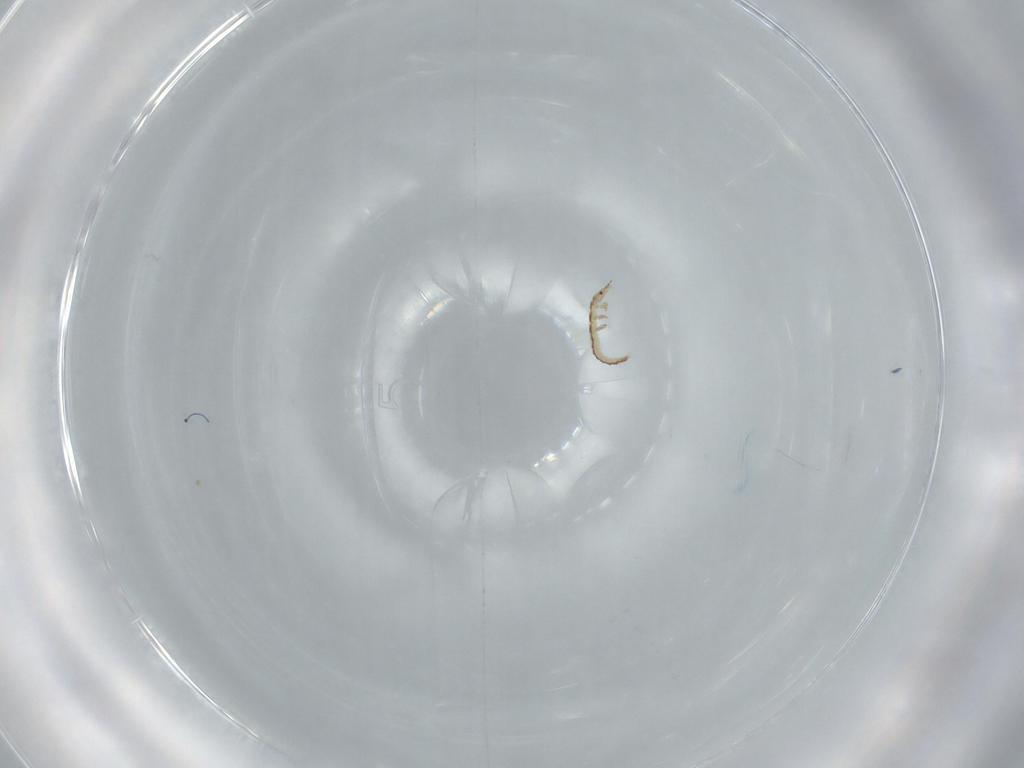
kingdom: Animalia
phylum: Arthropoda
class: Insecta
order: Neuroptera
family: Mantispidae
